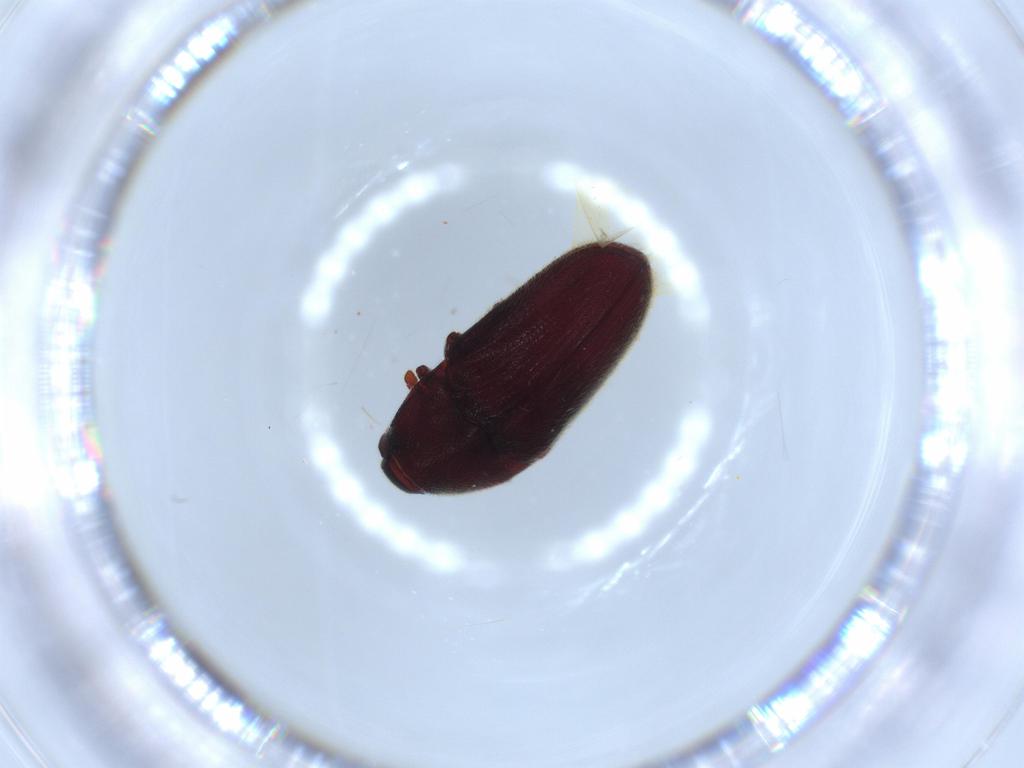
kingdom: Animalia
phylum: Arthropoda
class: Insecta
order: Coleoptera
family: Throscidae
